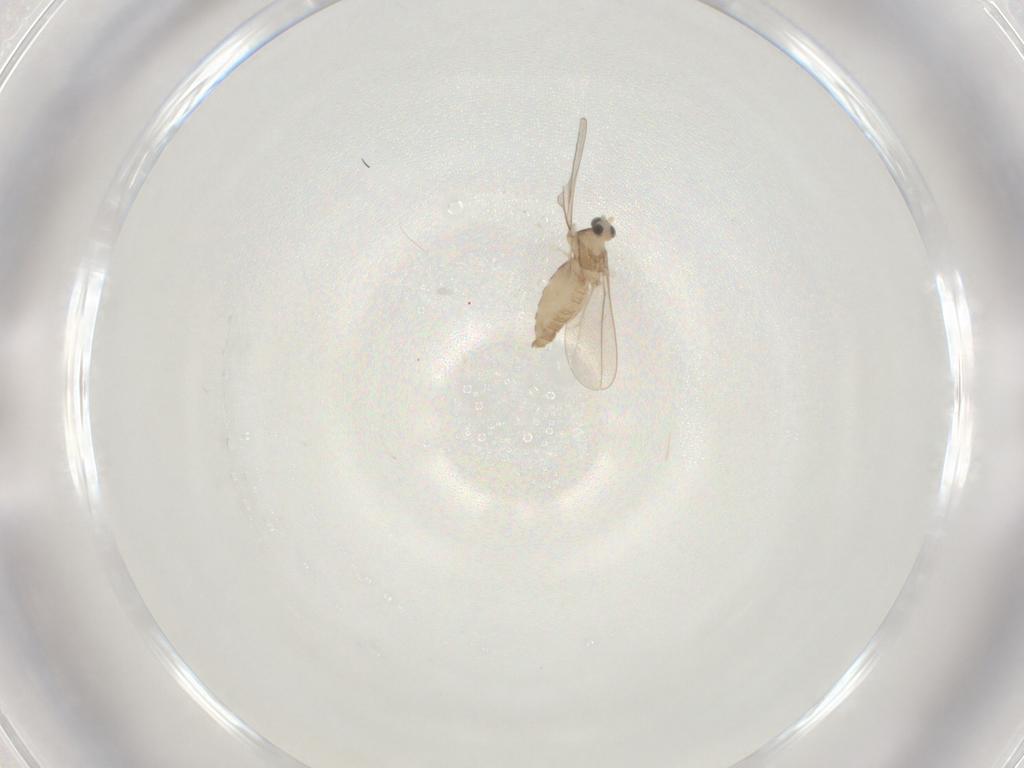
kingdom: Animalia
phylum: Arthropoda
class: Insecta
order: Diptera
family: Cecidomyiidae
